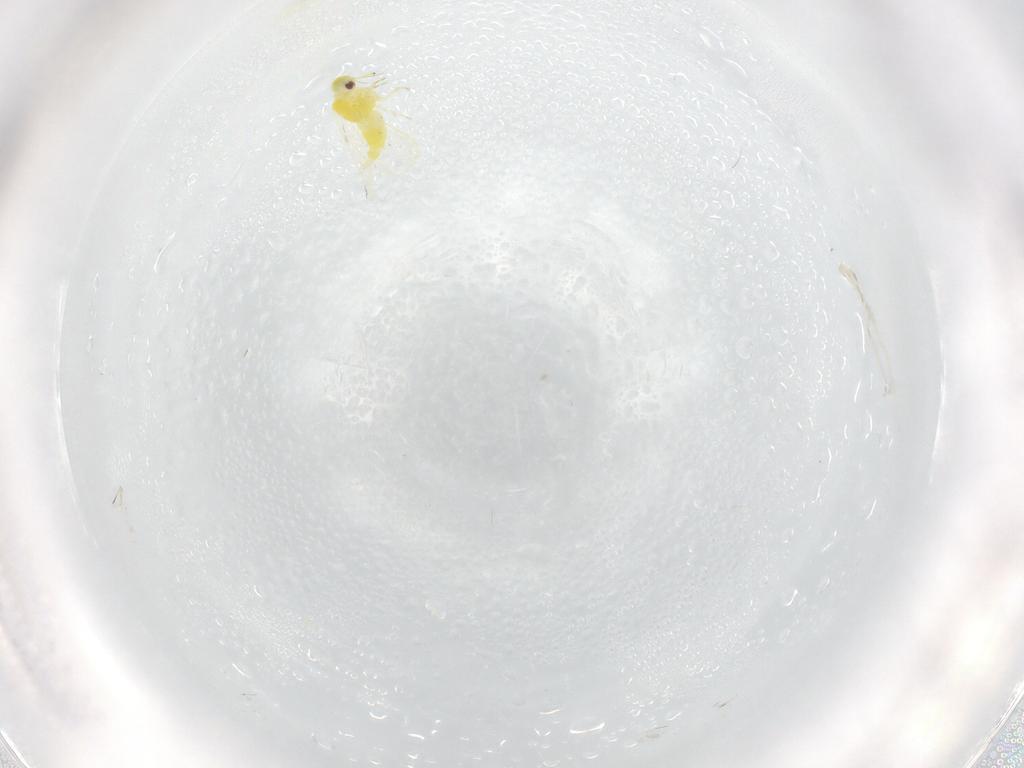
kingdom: Animalia
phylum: Arthropoda
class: Insecta
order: Hemiptera
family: Aleyrodidae
